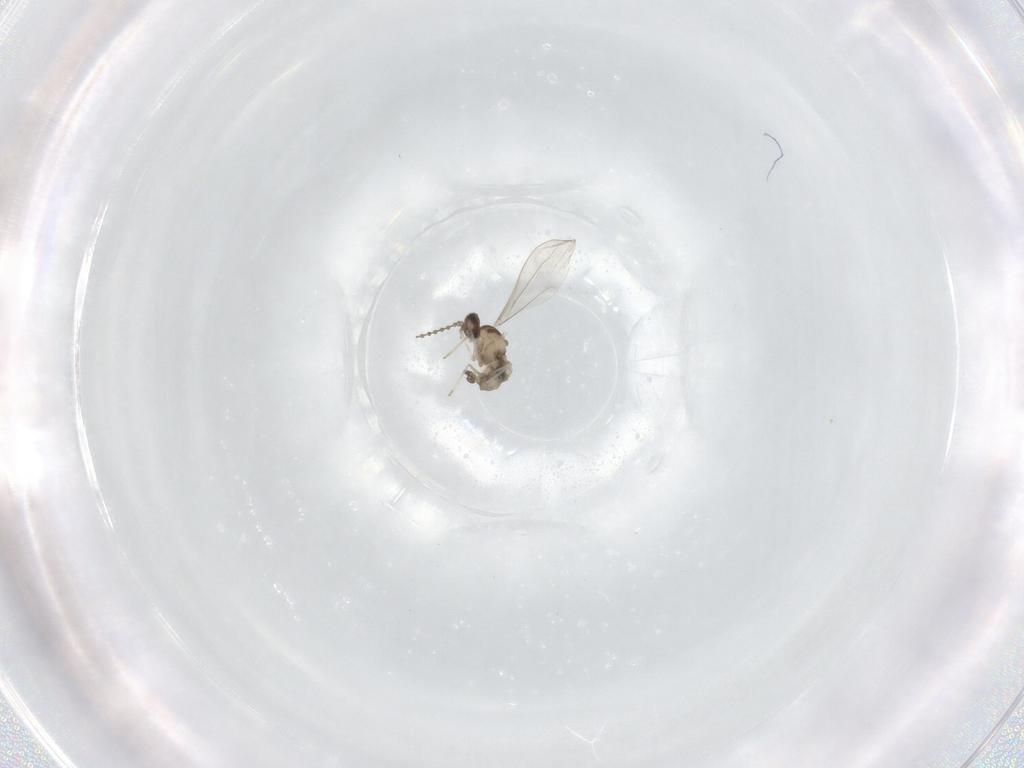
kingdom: Animalia
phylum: Arthropoda
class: Insecta
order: Diptera
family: Cecidomyiidae
